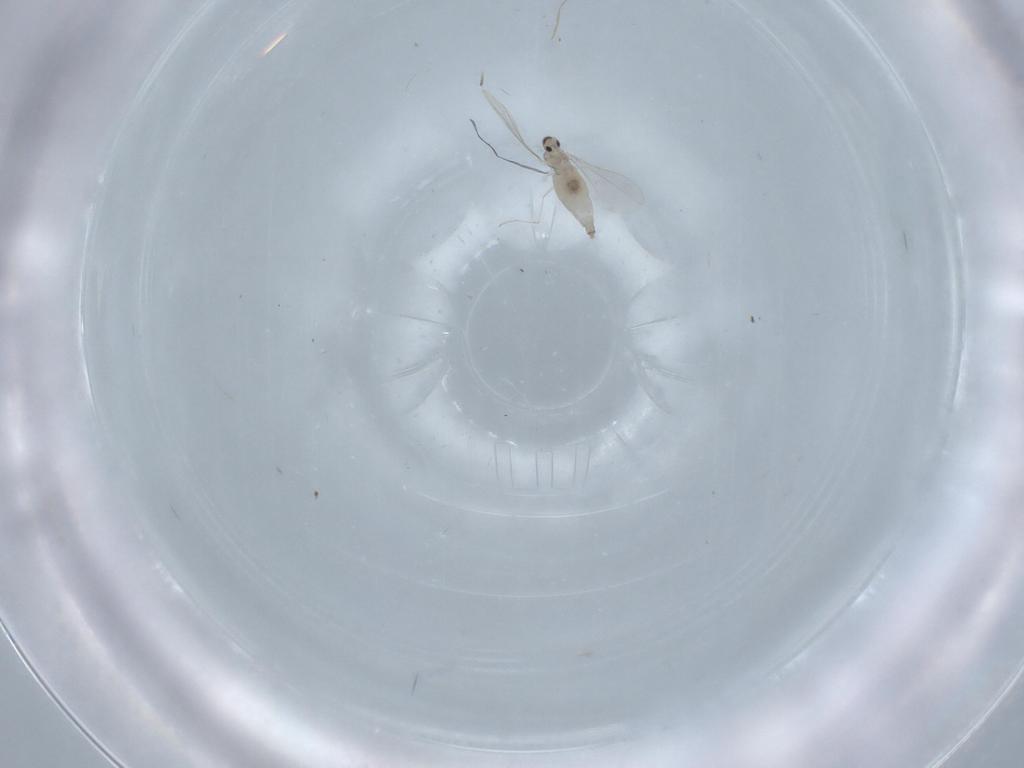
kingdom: Animalia
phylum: Arthropoda
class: Insecta
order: Diptera
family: Cecidomyiidae
